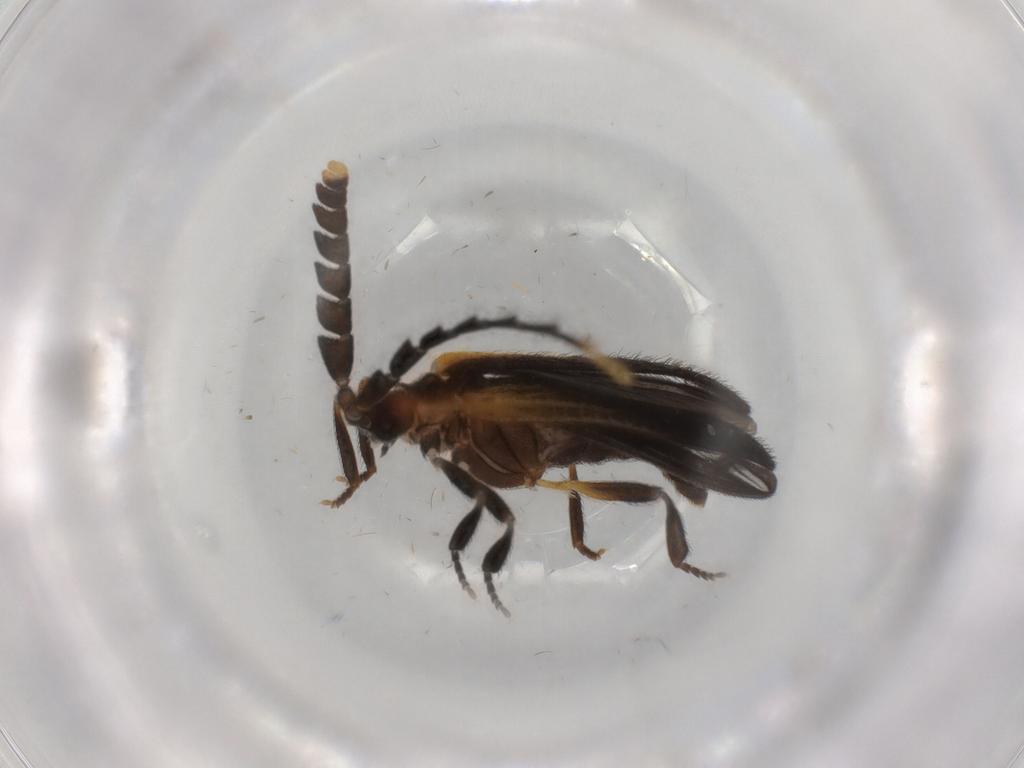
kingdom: Animalia
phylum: Arthropoda
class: Insecta
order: Coleoptera
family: Lycidae
